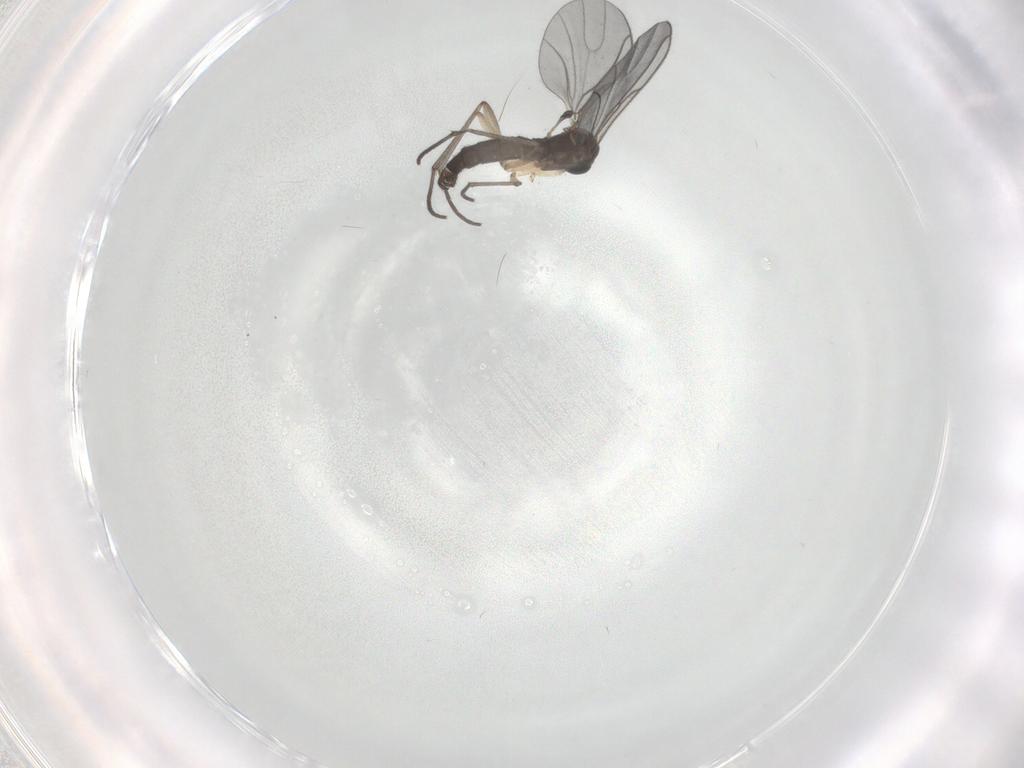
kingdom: Animalia
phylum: Arthropoda
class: Insecta
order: Diptera
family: Sciaridae
